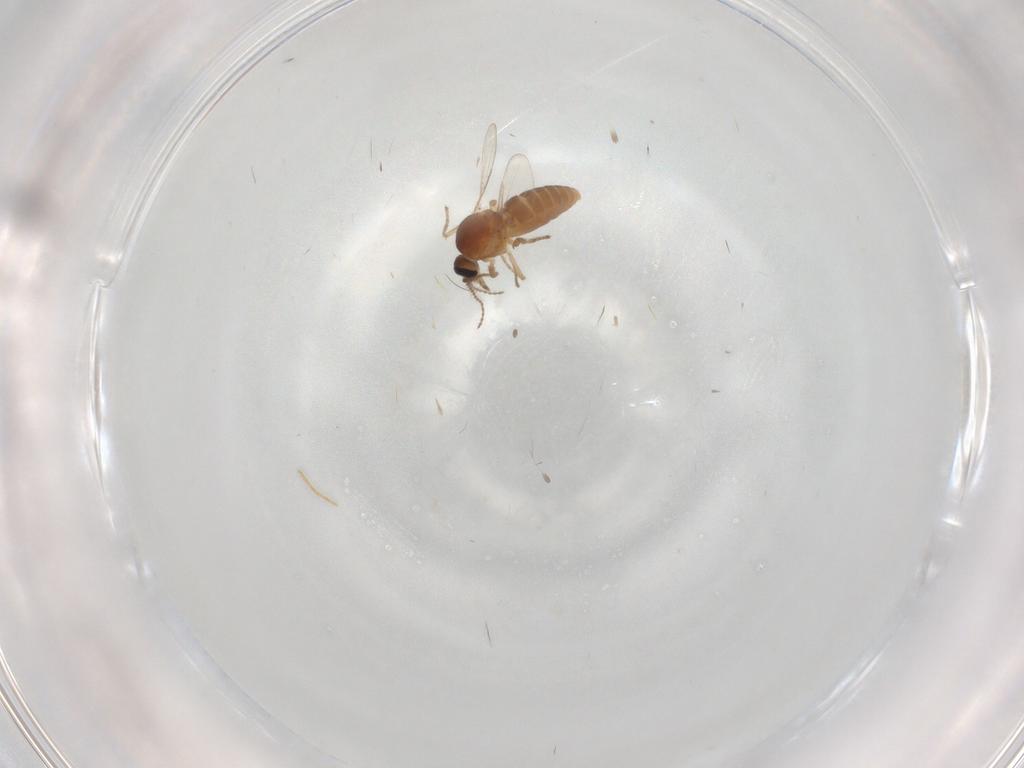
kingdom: Animalia
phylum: Arthropoda
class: Insecta
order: Diptera
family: Ceratopogonidae
